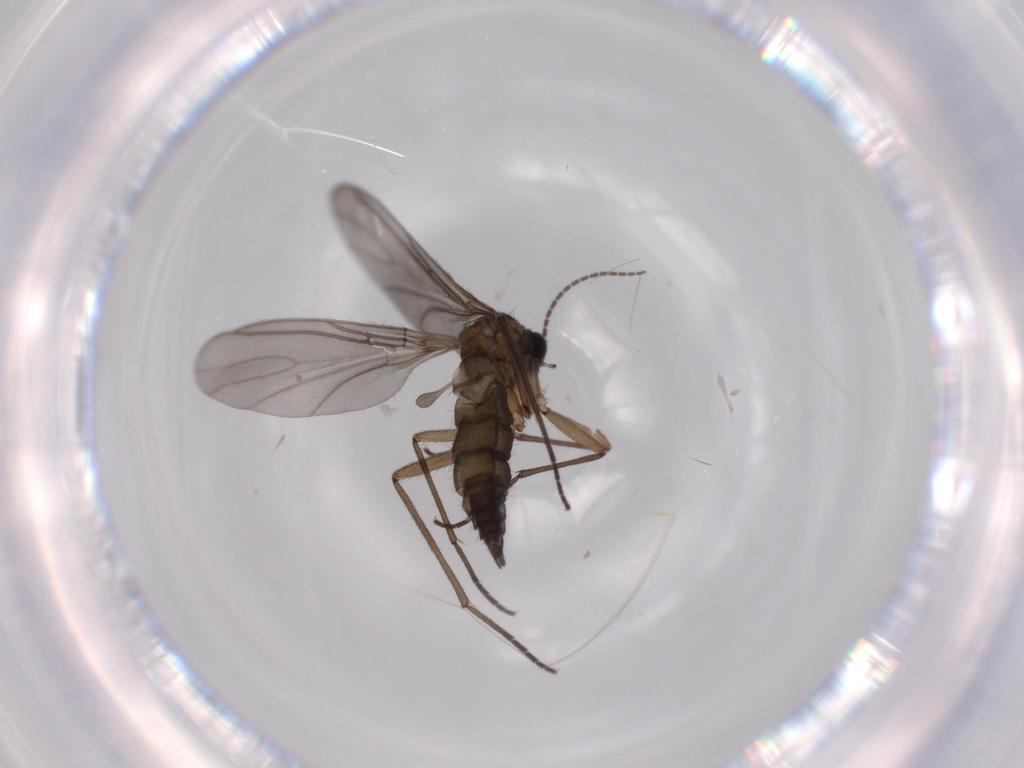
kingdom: Animalia
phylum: Arthropoda
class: Insecta
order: Diptera
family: Sciaridae
